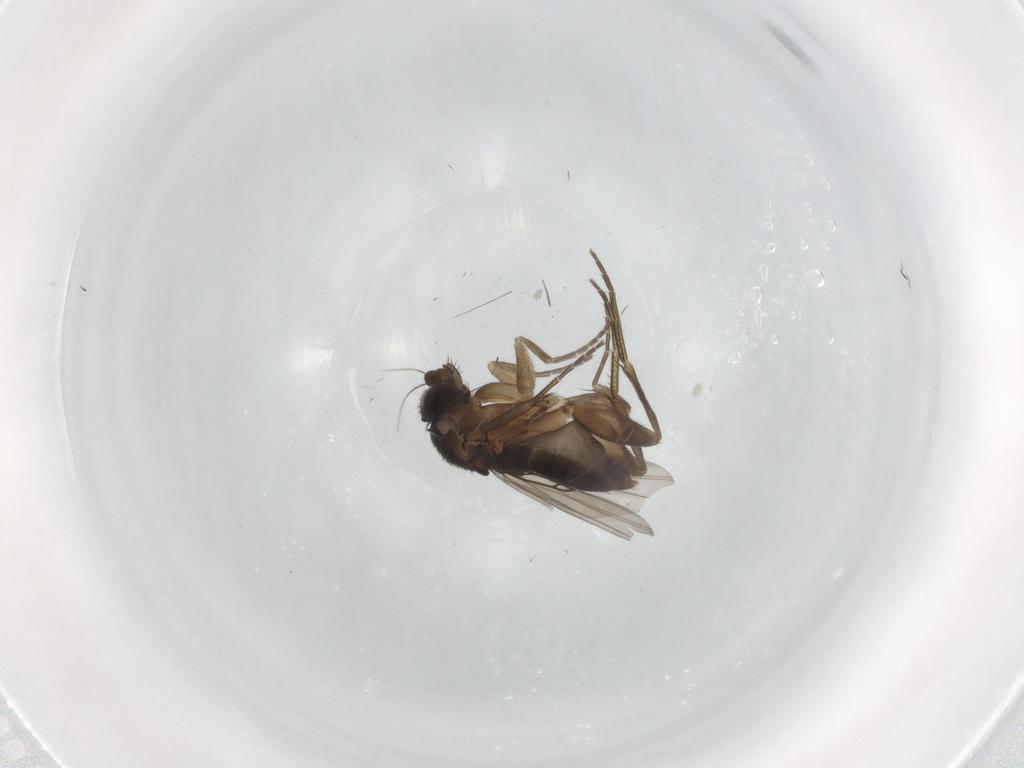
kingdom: Animalia
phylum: Arthropoda
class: Insecta
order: Diptera
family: Phoridae
